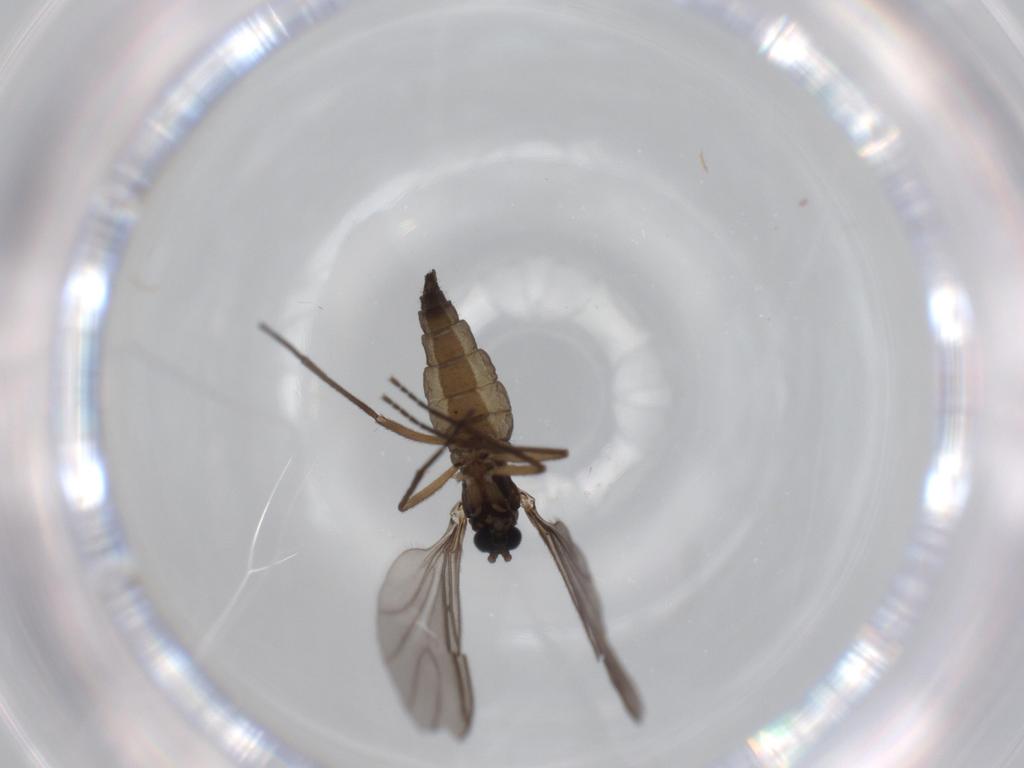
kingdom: Animalia
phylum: Arthropoda
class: Insecta
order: Diptera
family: Sciaridae
